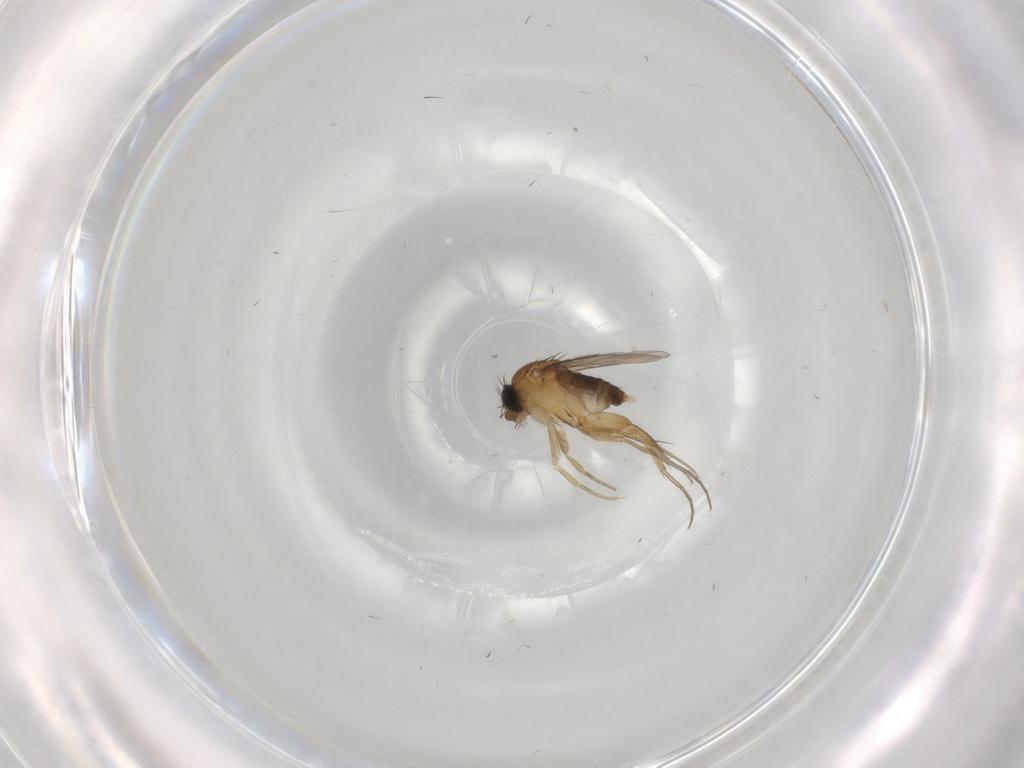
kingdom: Animalia
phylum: Arthropoda
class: Insecta
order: Diptera
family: Phoridae
